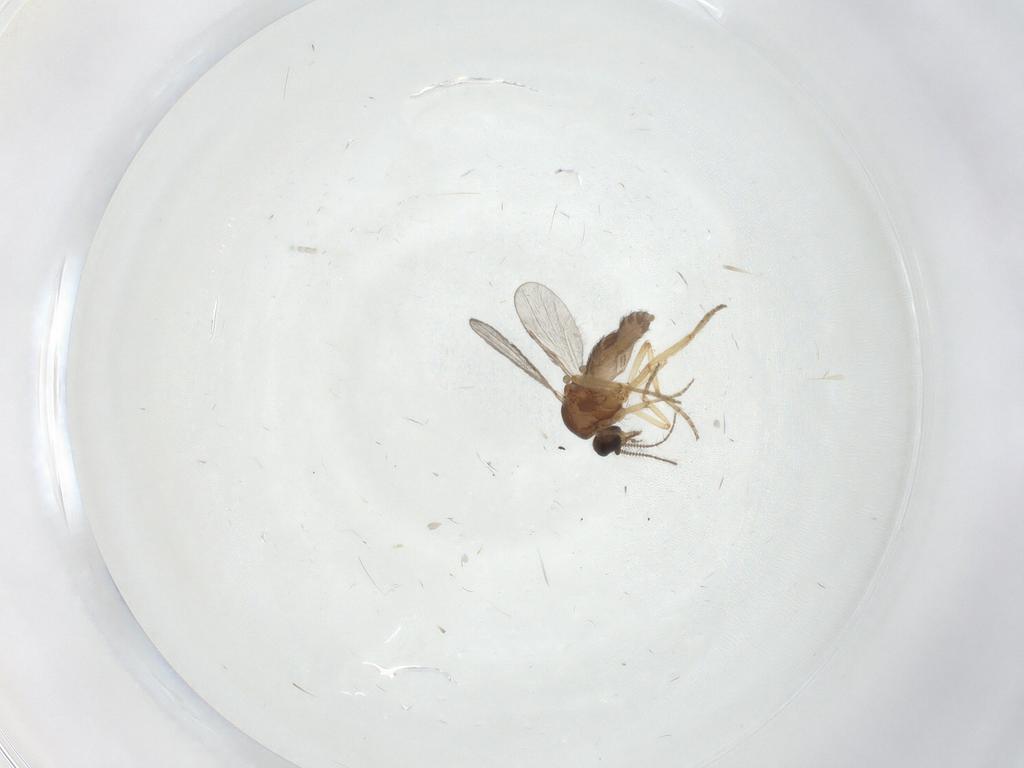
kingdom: Animalia
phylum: Arthropoda
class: Insecta
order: Diptera
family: Ceratopogonidae
